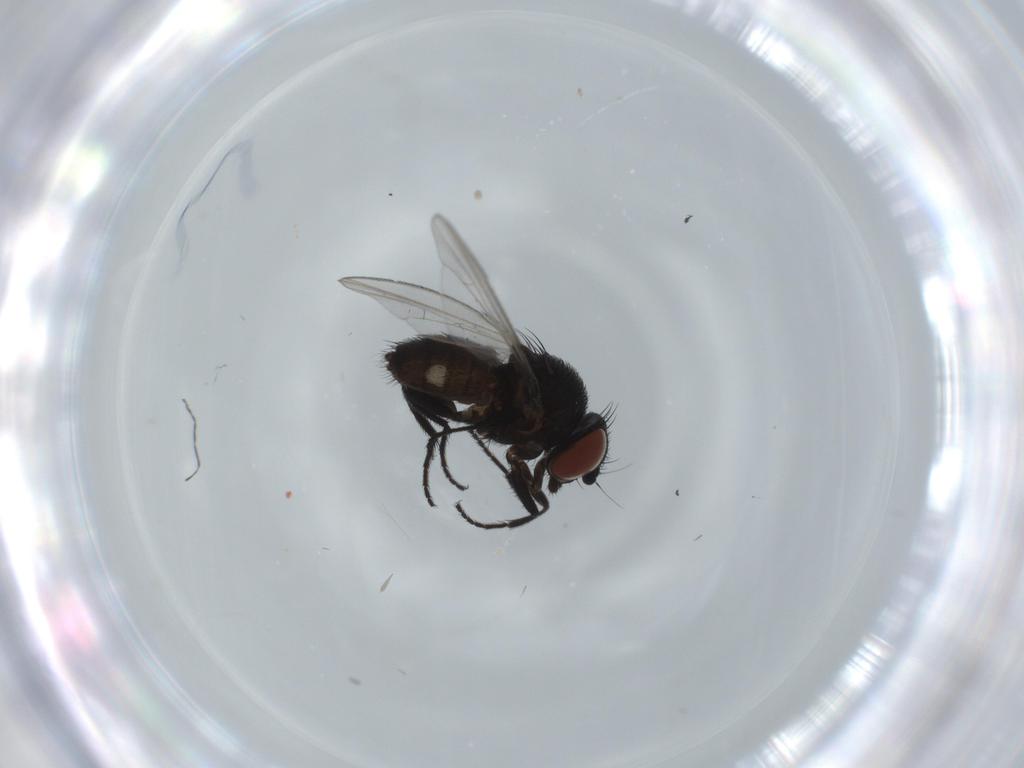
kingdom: Animalia
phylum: Arthropoda
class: Insecta
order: Diptera
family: Milichiidae
